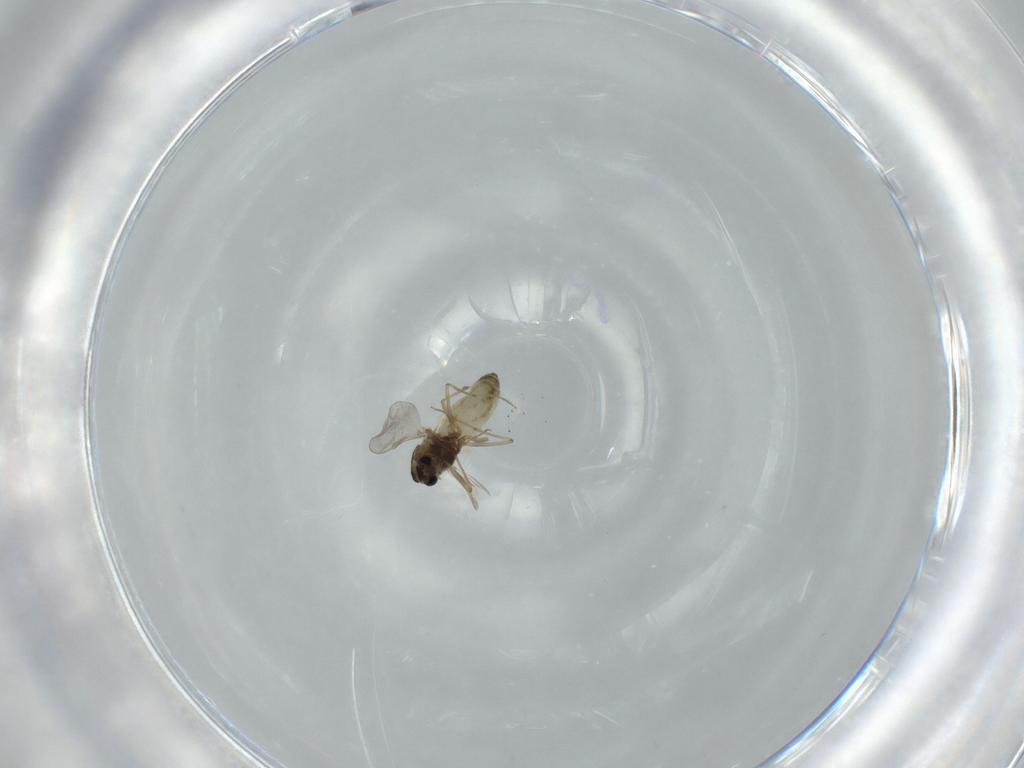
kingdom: Animalia
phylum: Arthropoda
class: Insecta
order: Diptera
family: Chironomidae
